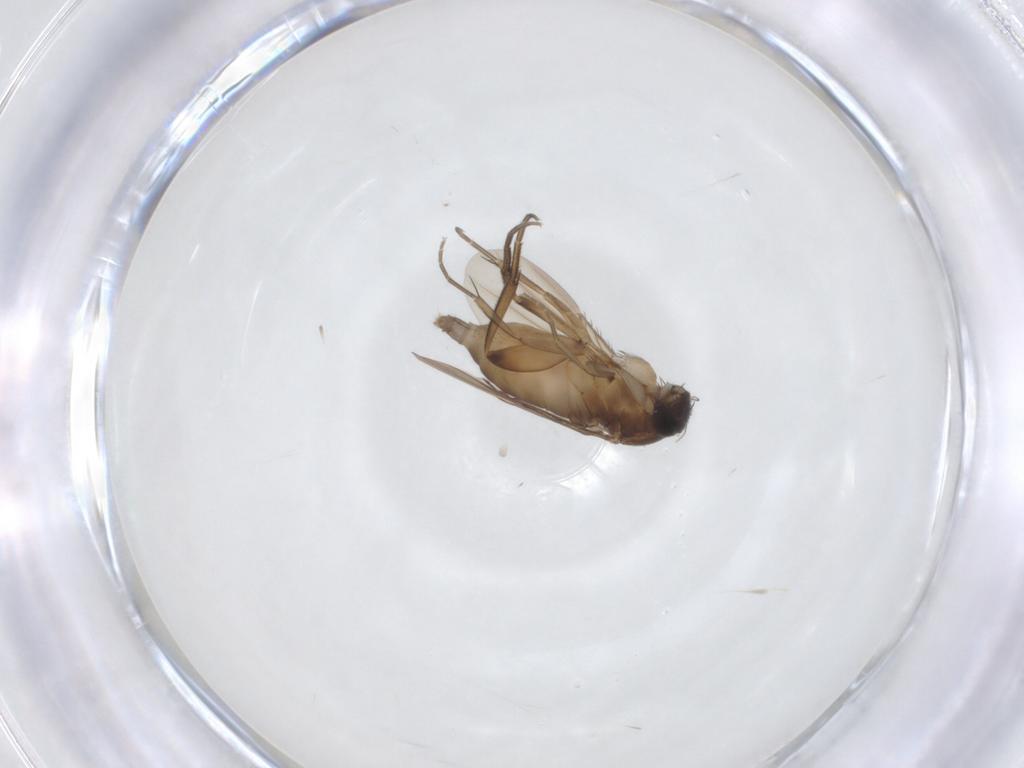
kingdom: Animalia
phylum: Arthropoda
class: Insecta
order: Diptera
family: Phoridae
